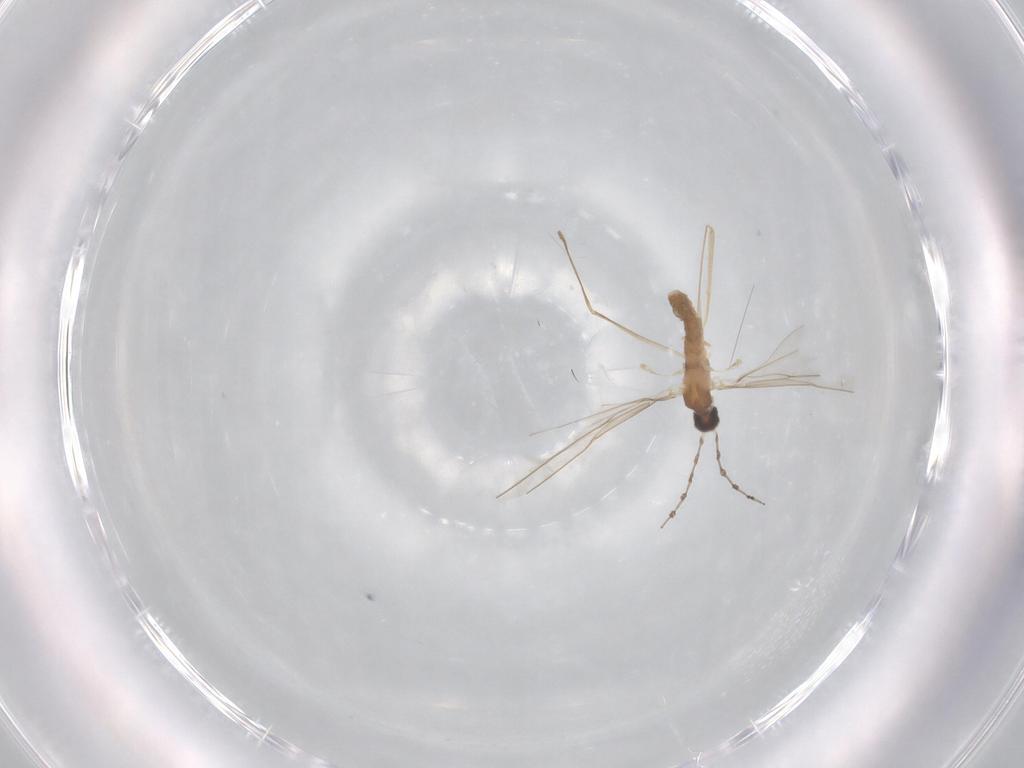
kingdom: Animalia
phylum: Arthropoda
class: Insecta
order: Diptera
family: Cecidomyiidae
